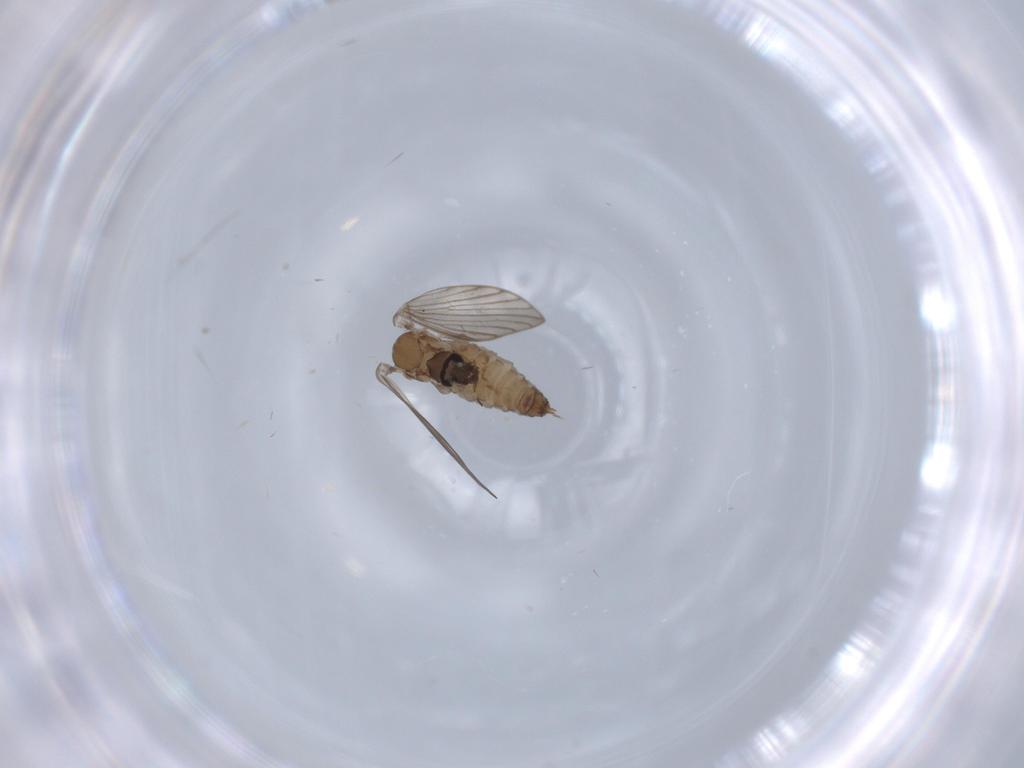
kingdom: Animalia
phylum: Arthropoda
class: Insecta
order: Diptera
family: Psychodidae
